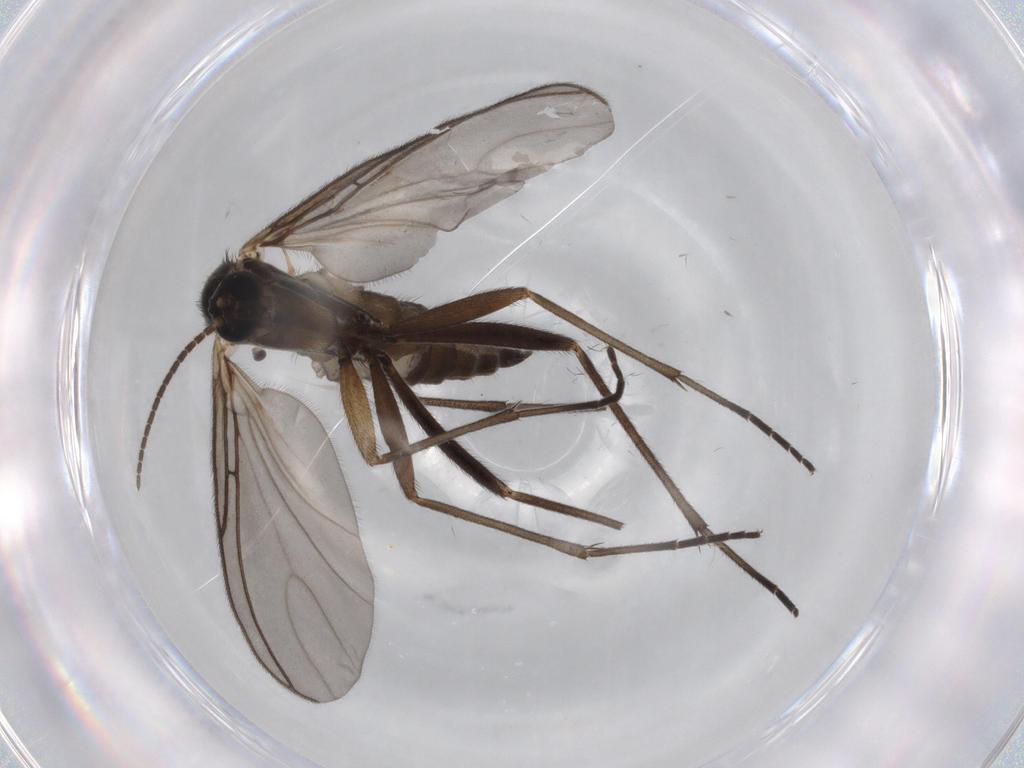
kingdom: Animalia
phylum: Arthropoda
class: Insecta
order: Diptera
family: Sciaridae
